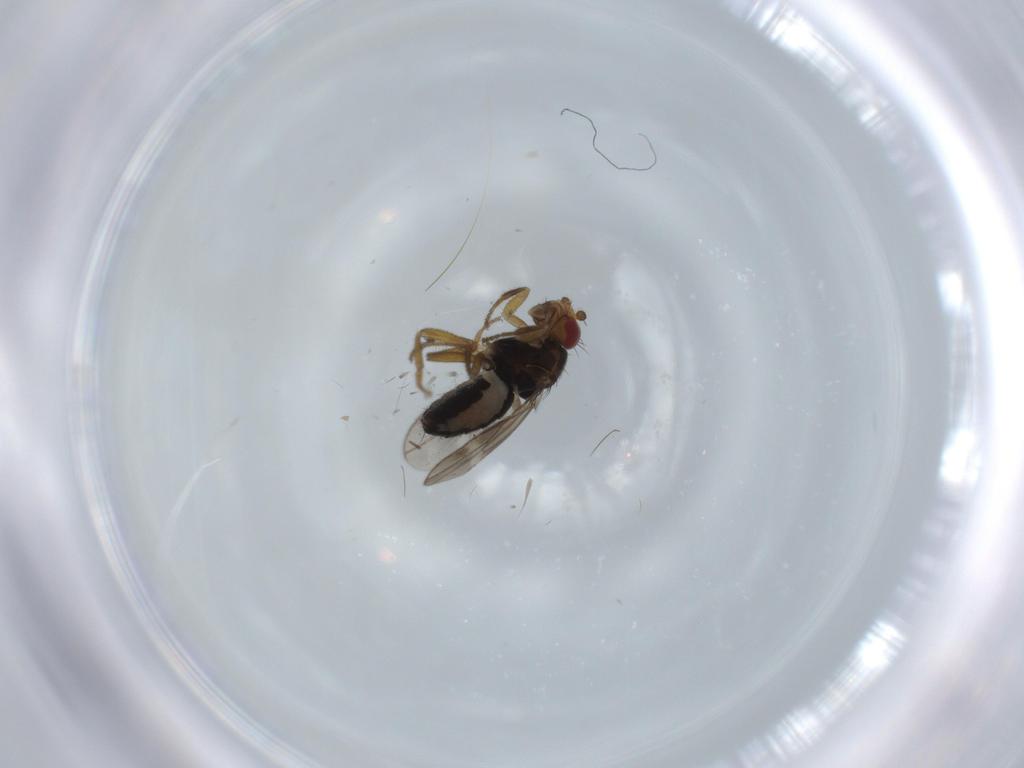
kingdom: Animalia
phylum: Arthropoda
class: Insecta
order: Diptera
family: Sphaeroceridae
